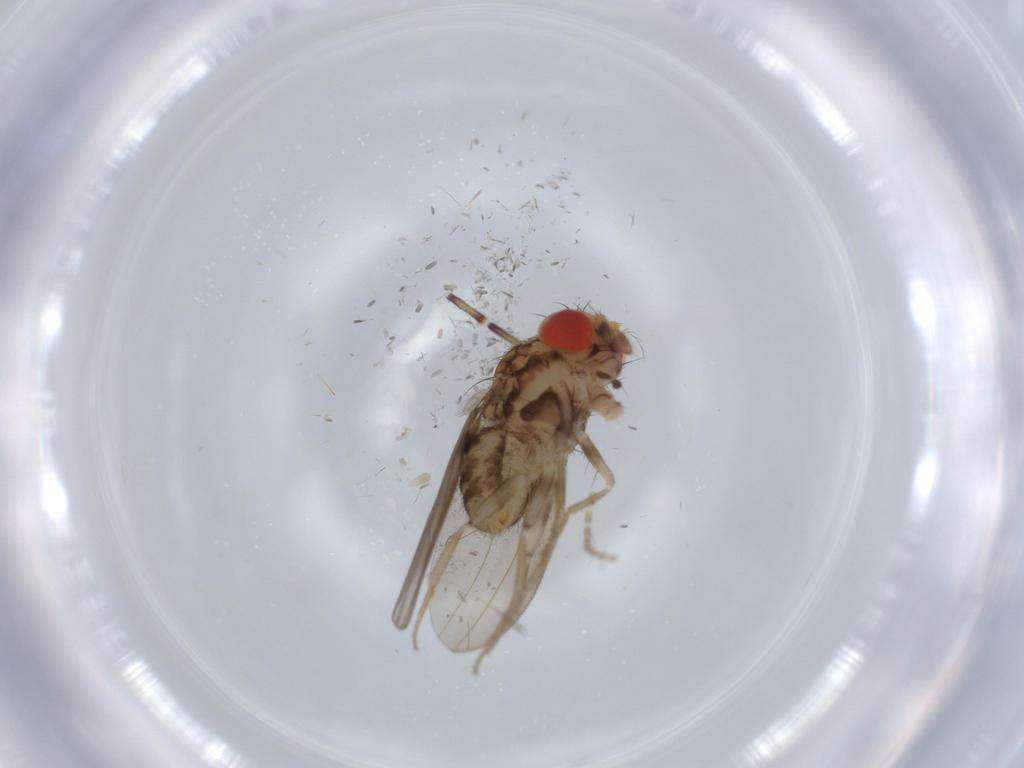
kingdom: Animalia
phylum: Arthropoda
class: Insecta
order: Diptera
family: Drosophilidae
